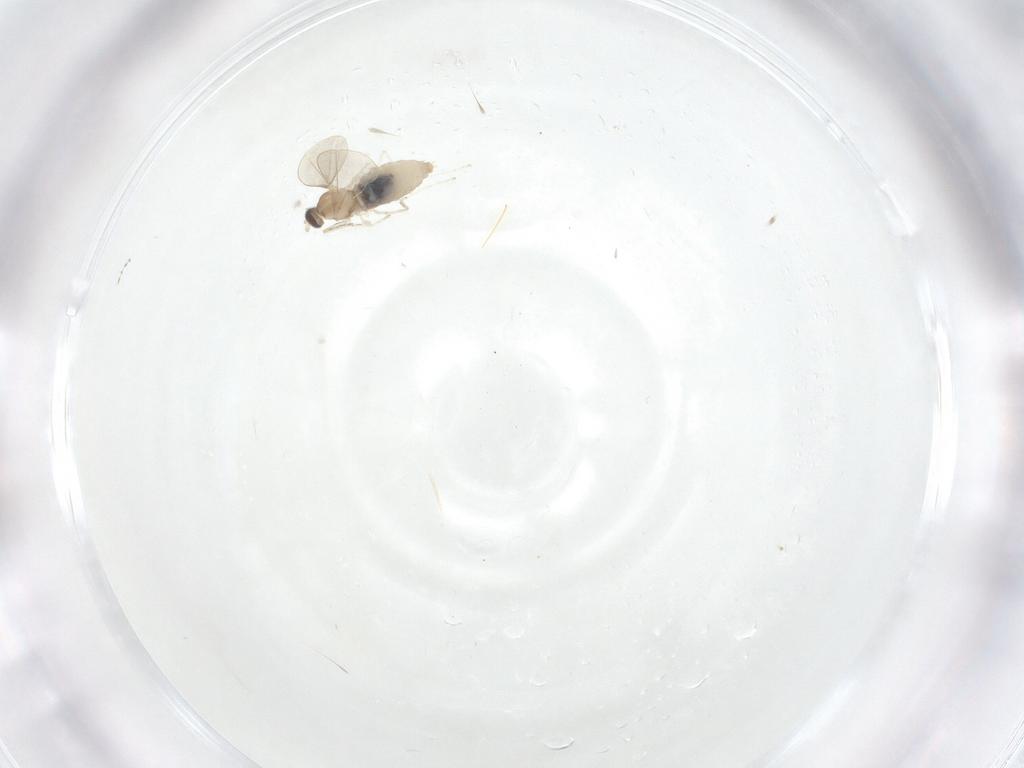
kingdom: Animalia
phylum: Arthropoda
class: Insecta
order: Diptera
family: Cecidomyiidae
